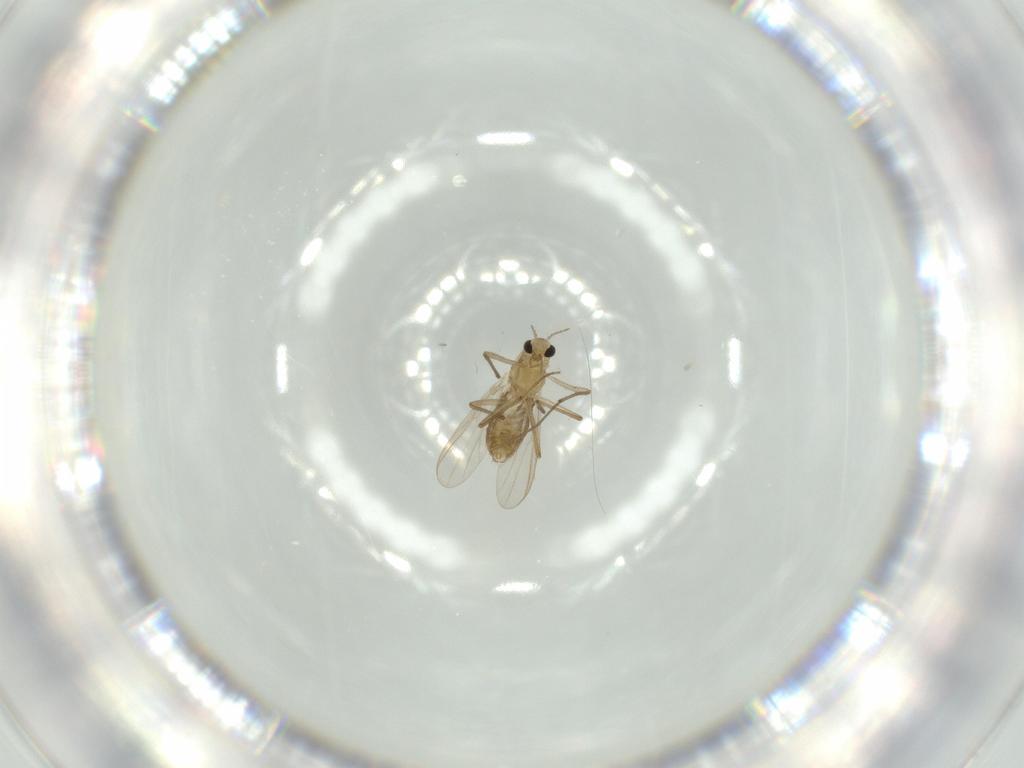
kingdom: Animalia
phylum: Arthropoda
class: Insecta
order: Diptera
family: Chironomidae
